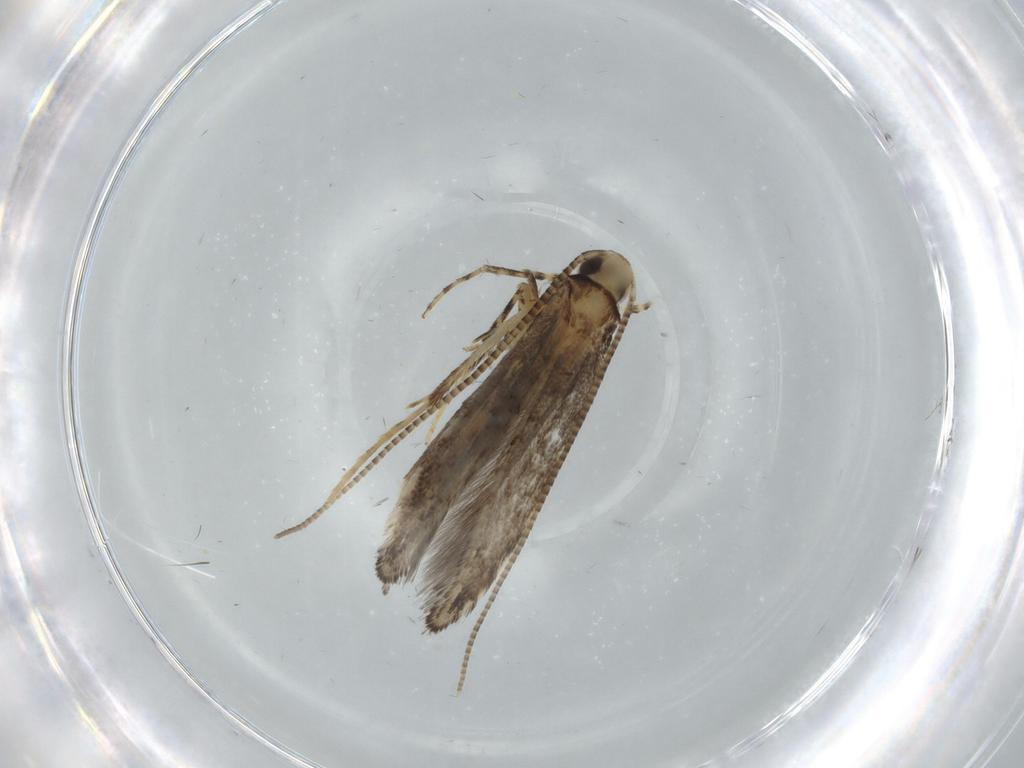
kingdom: Animalia
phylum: Arthropoda
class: Insecta
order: Lepidoptera
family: Gracillariidae
